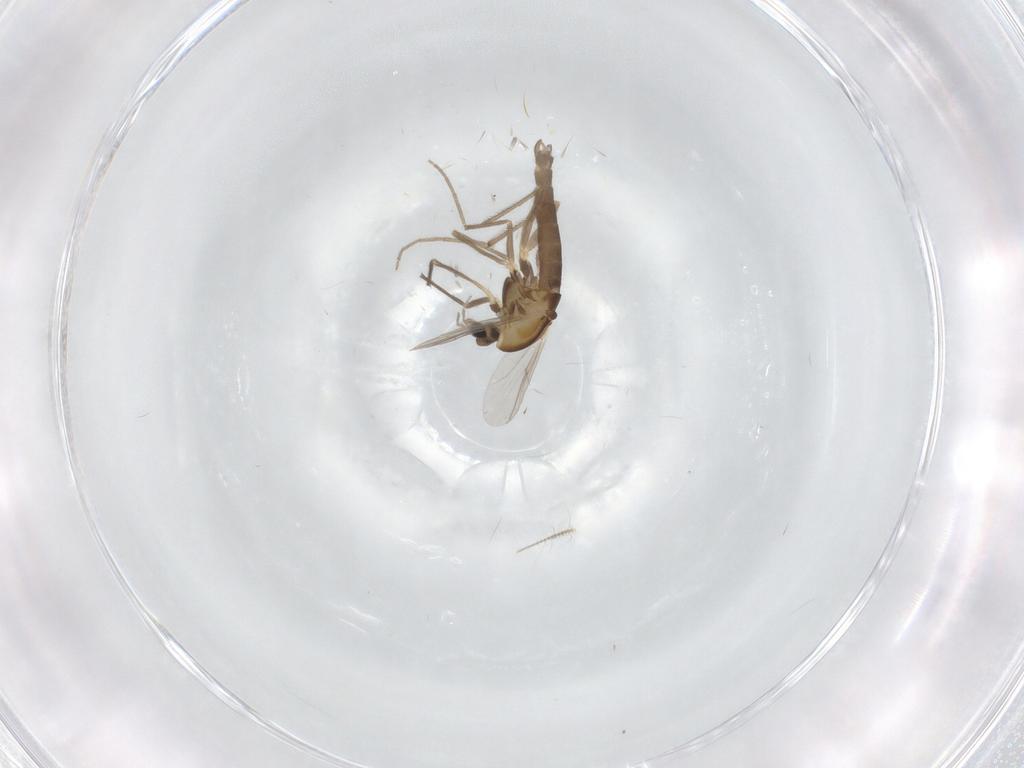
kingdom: Animalia
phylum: Arthropoda
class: Insecta
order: Diptera
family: Chironomidae
